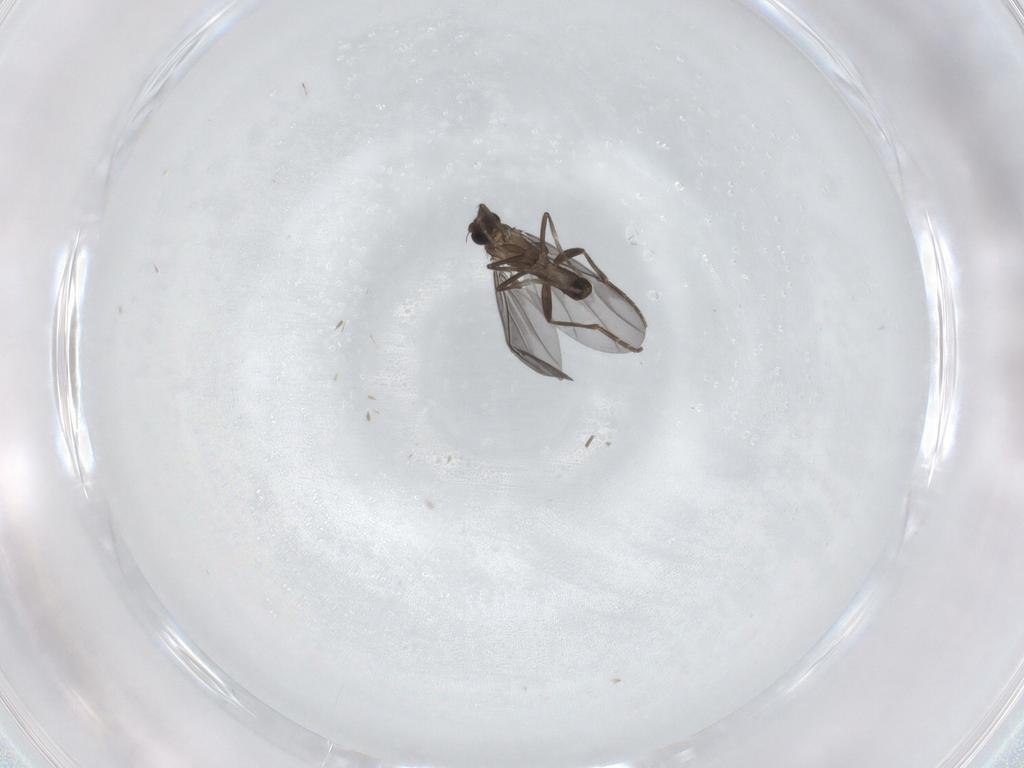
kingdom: Animalia
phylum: Arthropoda
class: Insecta
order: Diptera
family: Phoridae
